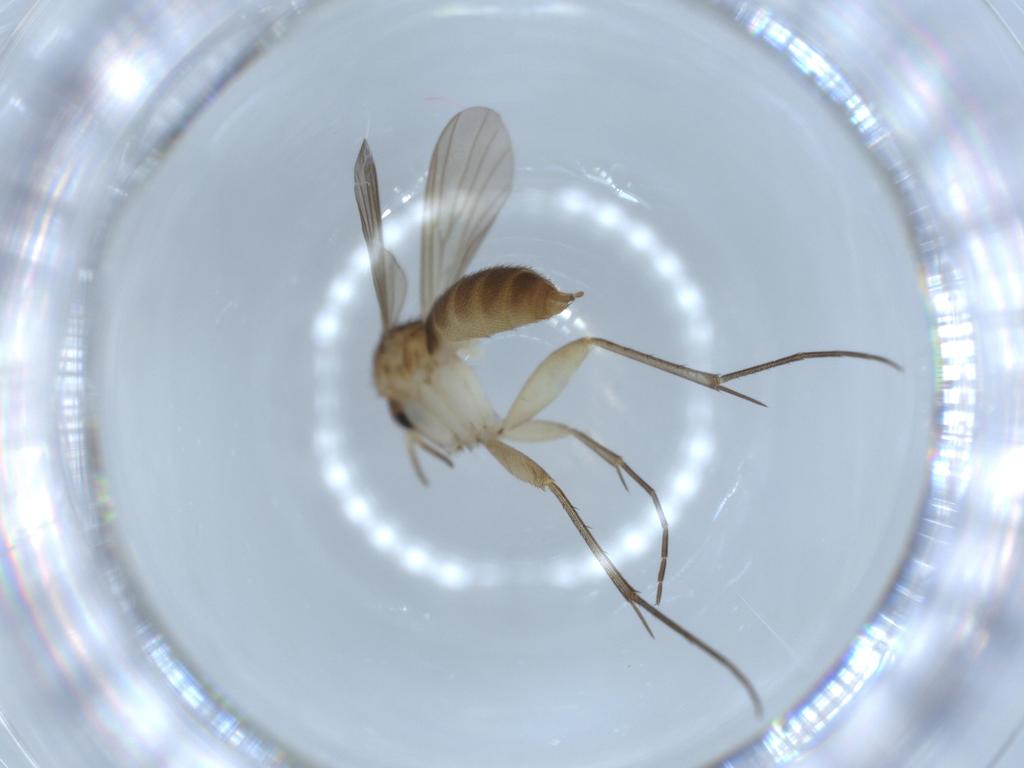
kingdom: Animalia
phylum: Arthropoda
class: Insecta
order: Diptera
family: Mycetophilidae
